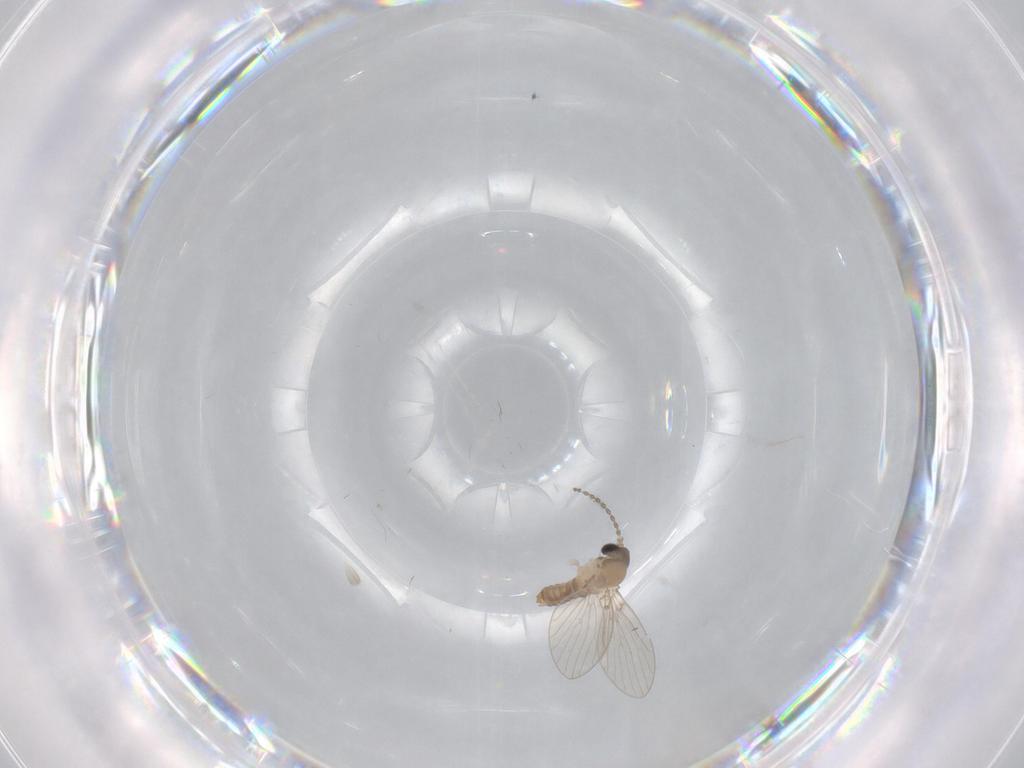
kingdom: Animalia
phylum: Arthropoda
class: Insecta
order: Diptera
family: Cecidomyiidae
